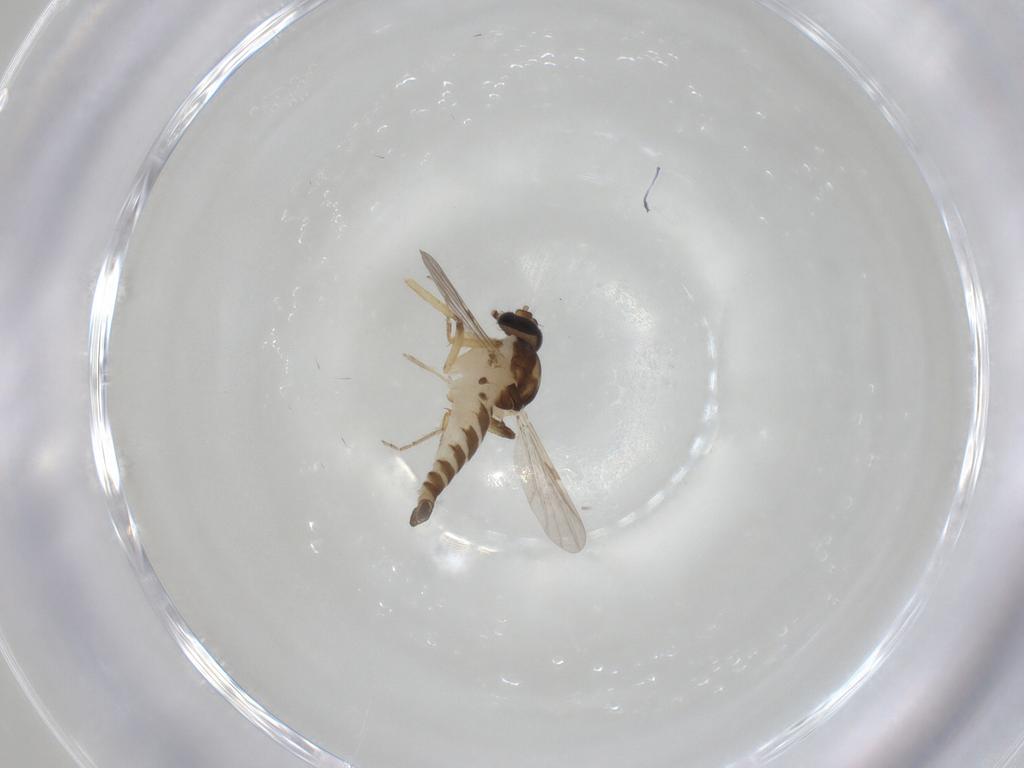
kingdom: Animalia
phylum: Arthropoda
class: Insecta
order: Diptera
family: Ceratopogonidae
